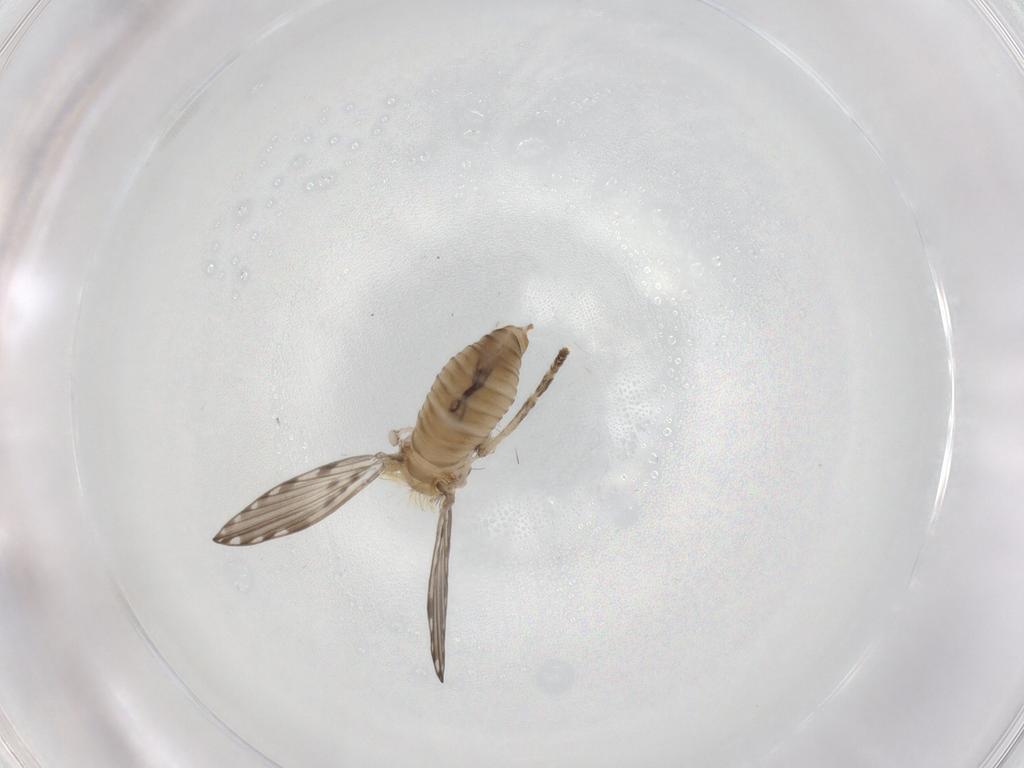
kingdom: Animalia
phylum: Arthropoda
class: Insecta
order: Diptera
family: Psychodidae
